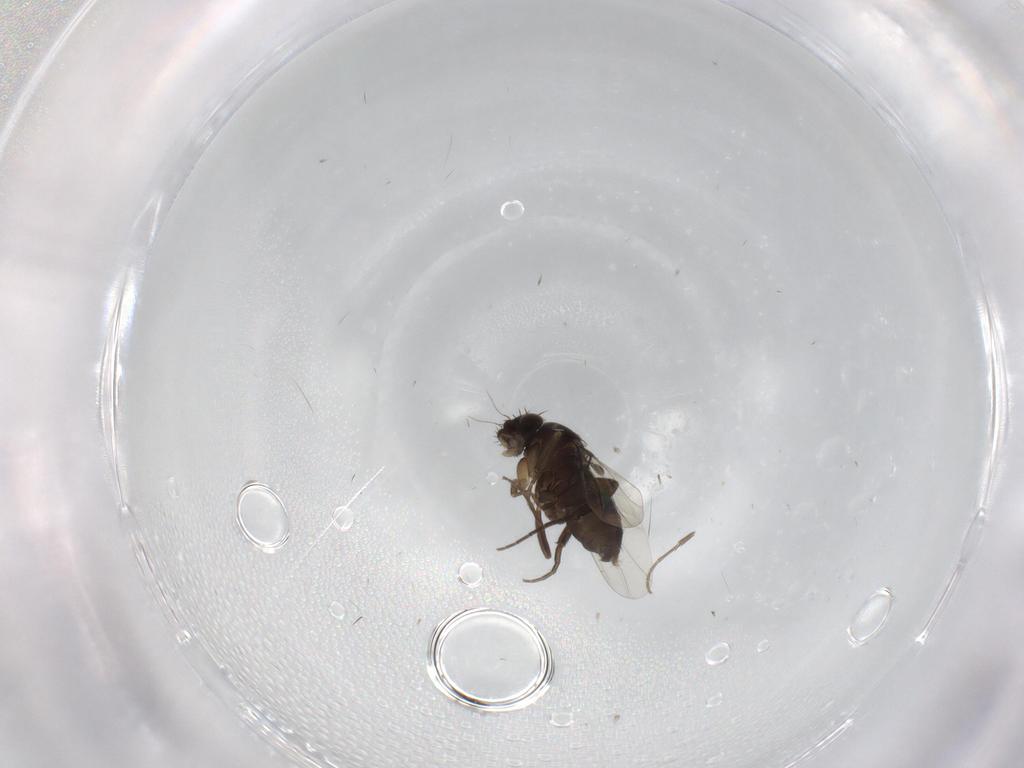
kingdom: Animalia
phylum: Arthropoda
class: Insecta
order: Diptera
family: Phoridae
